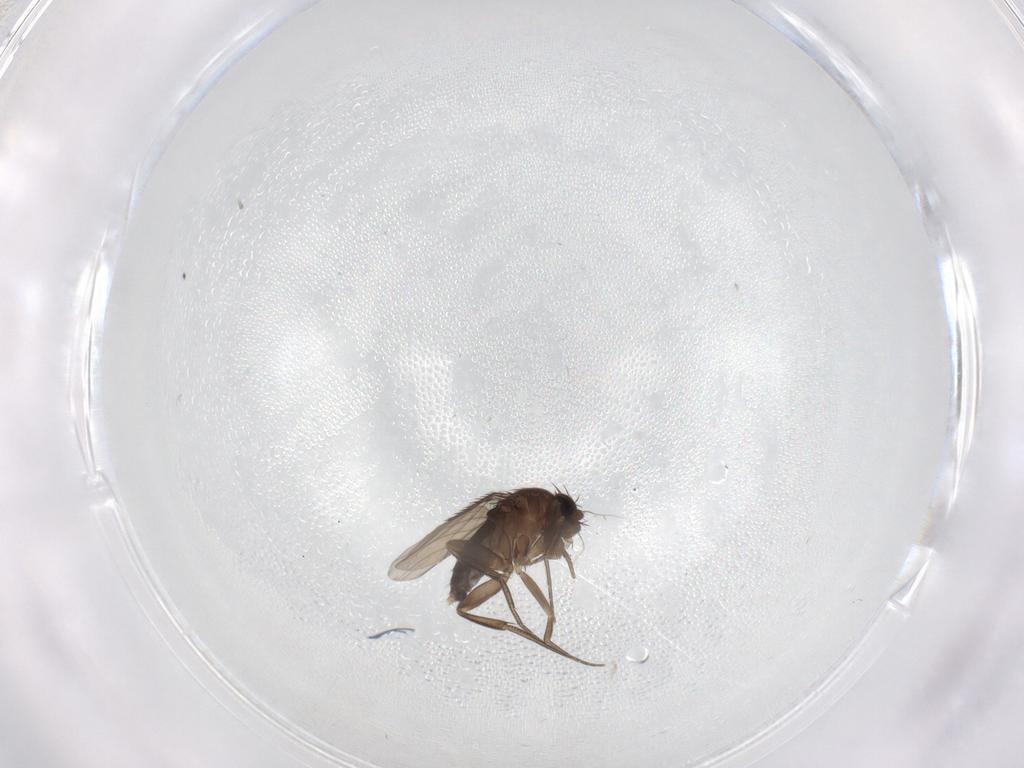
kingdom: Animalia
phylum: Arthropoda
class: Insecta
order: Diptera
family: Phoridae
